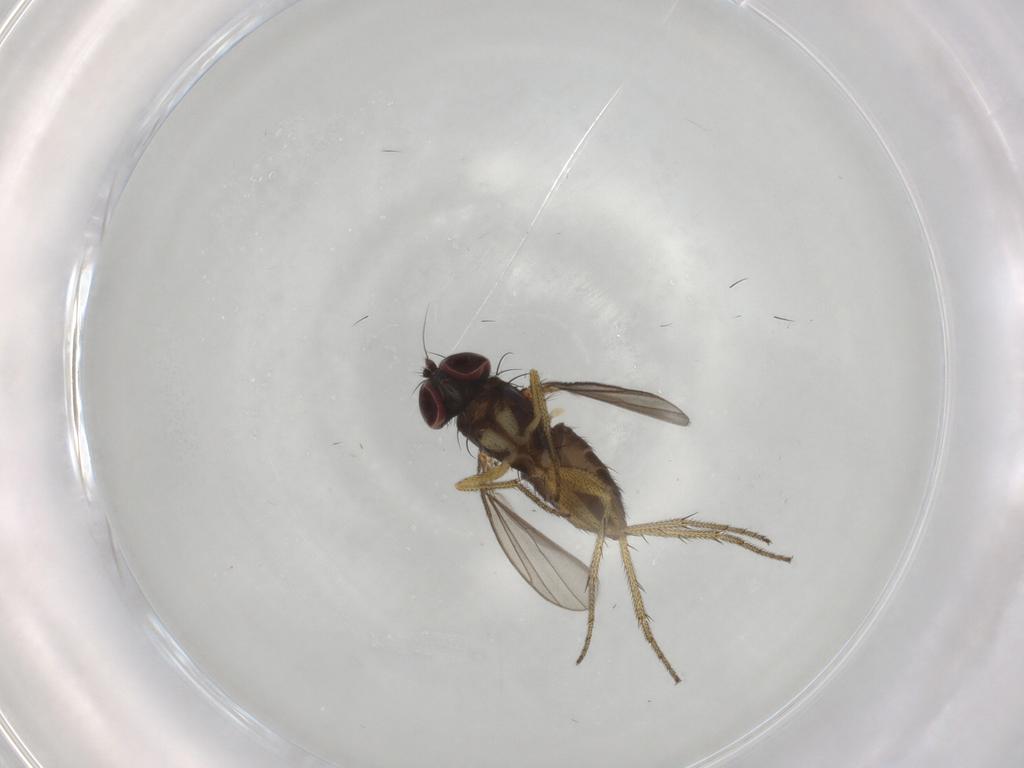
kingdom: Animalia
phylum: Arthropoda
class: Insecta
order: Diptera
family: Dolichopodidae
